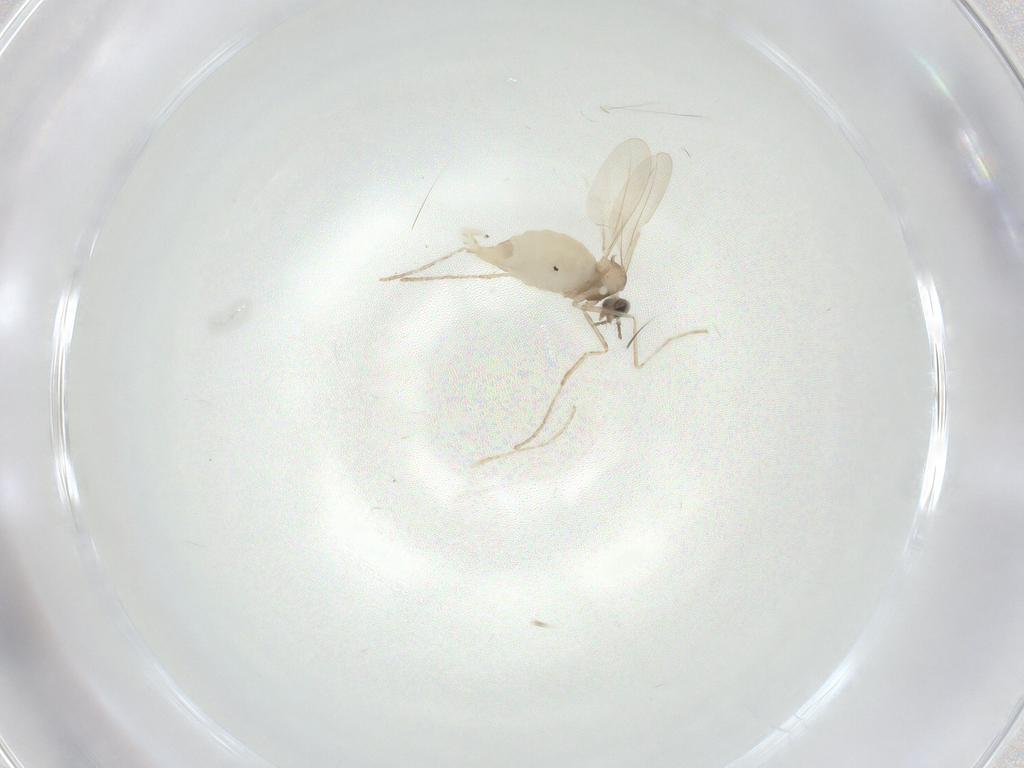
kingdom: Animalia
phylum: Arthropoda
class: Insecta
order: Diptera
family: Cecidomyiidae
